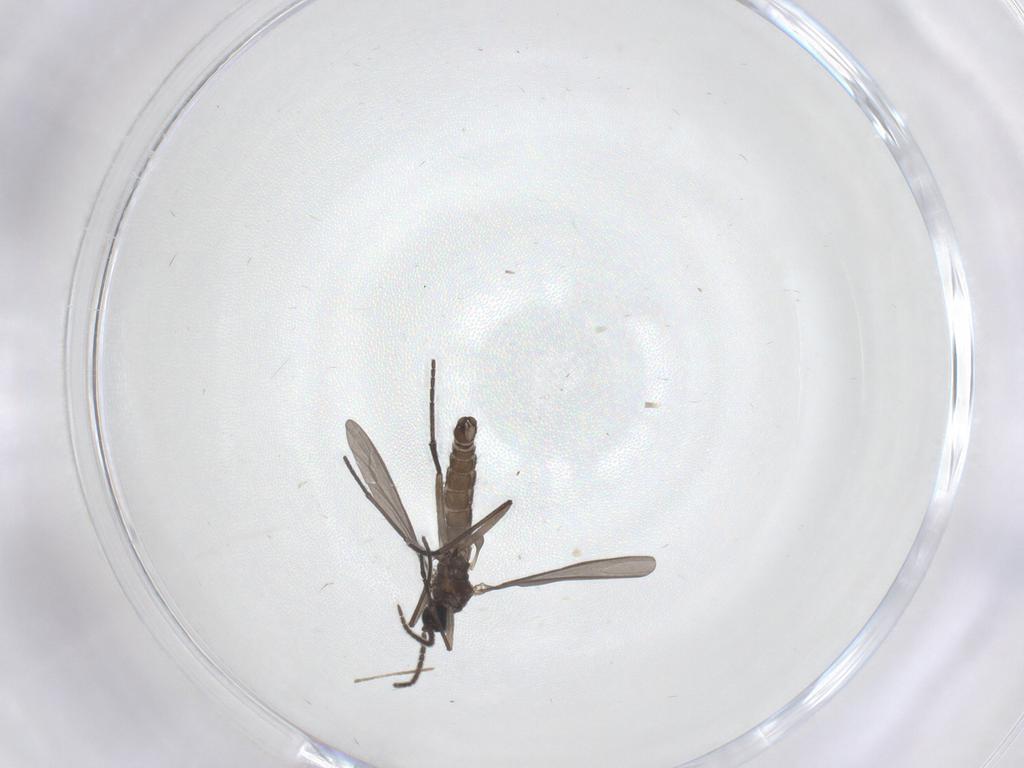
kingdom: Animalia
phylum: Arthropoda
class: Insecta
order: Diptera
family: Sciaridae
